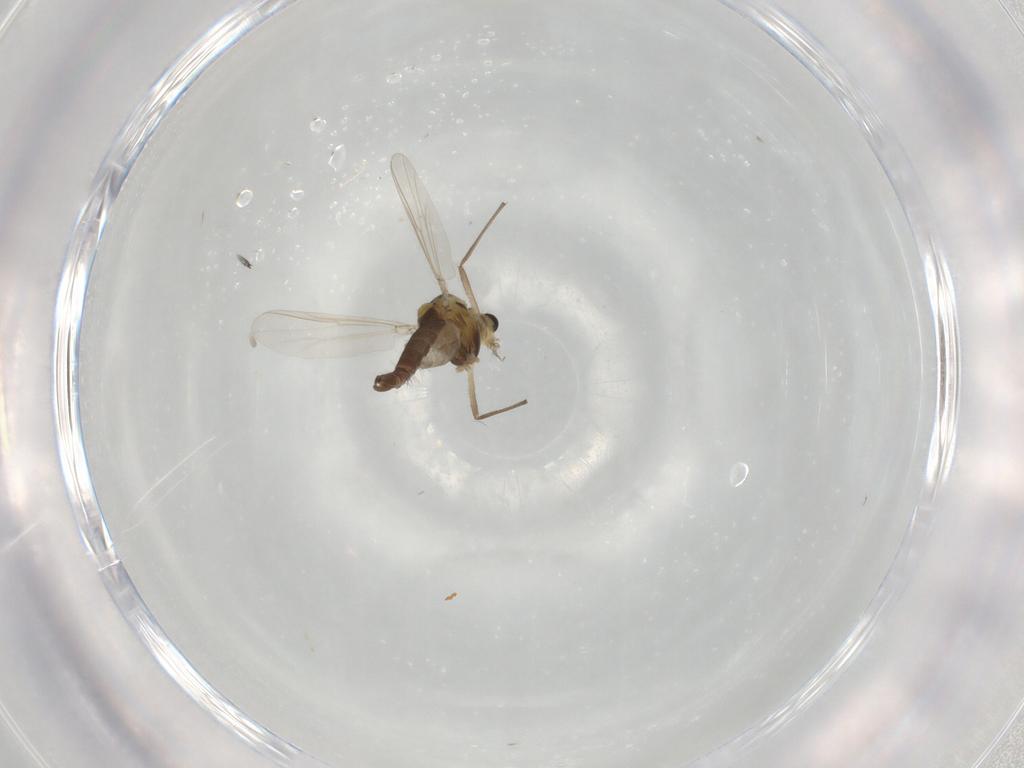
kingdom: Animalia
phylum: Arthropoda
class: Insecta
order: Diptera
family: Chironomidae
